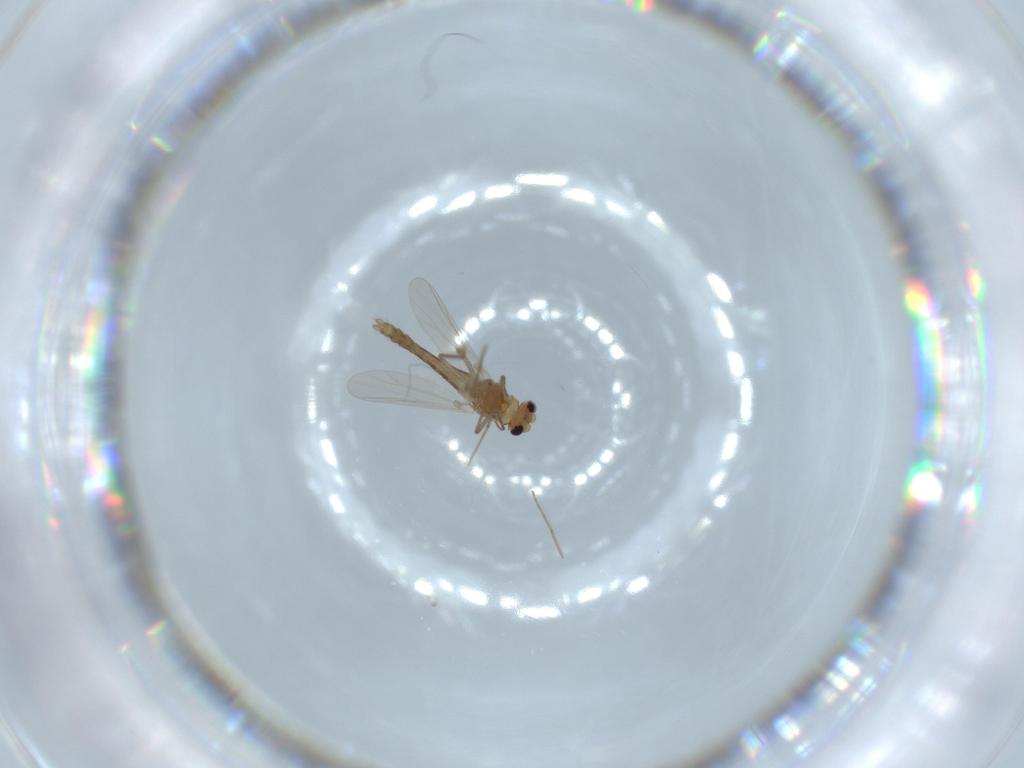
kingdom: Animalia
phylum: Arthropoda
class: Insecta
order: Diptera
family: Chironomidae
